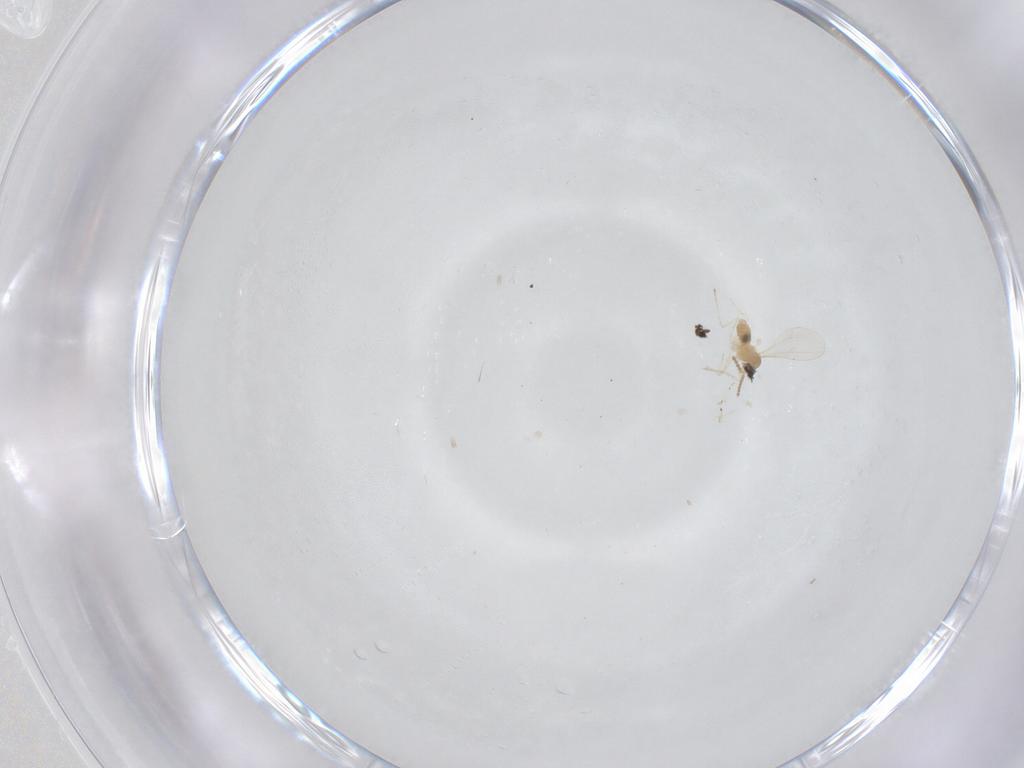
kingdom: Animalia
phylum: Arthropoda
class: Insecta
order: Diptera
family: Cecidomyiidae
